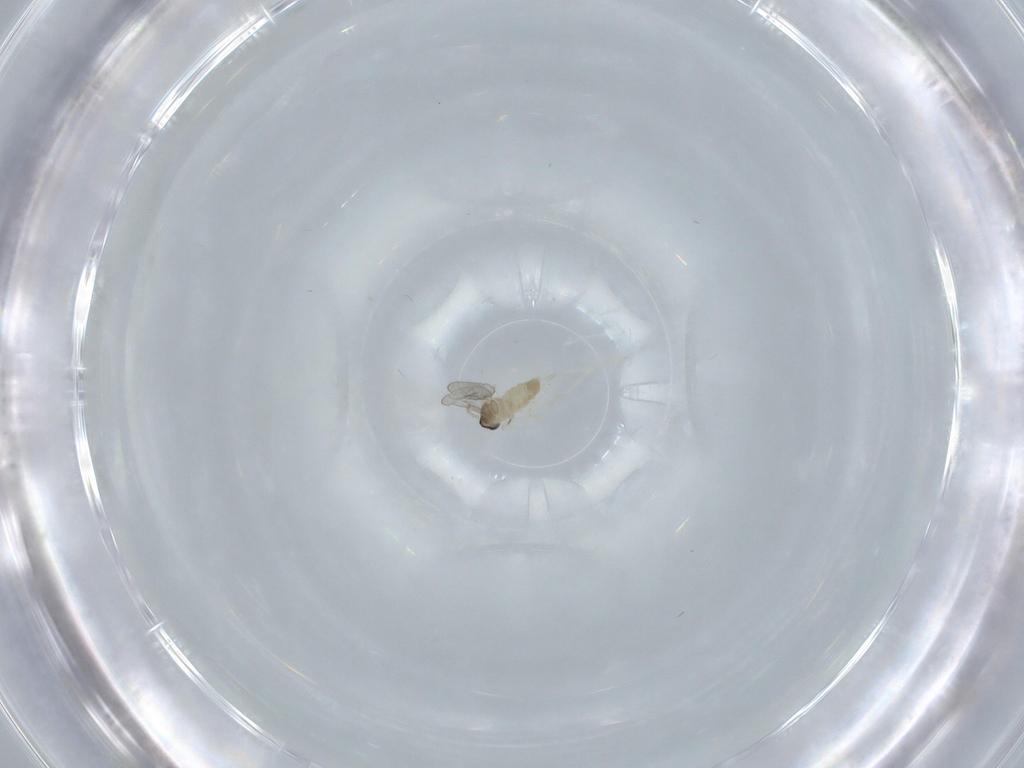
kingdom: Animalia
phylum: Arthropoda
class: Insecta
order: Diptera
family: Cecidomyiidae
